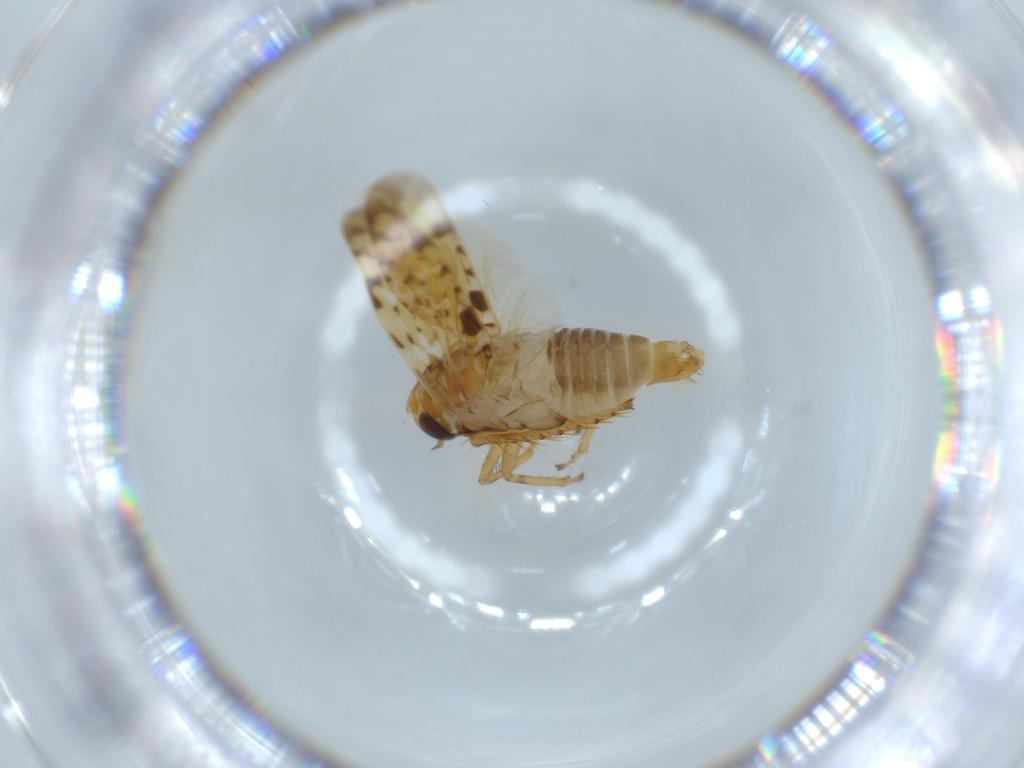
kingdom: Animalia
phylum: Arthropoda
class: Insecta
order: Hemiptera
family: Cicadellidae
